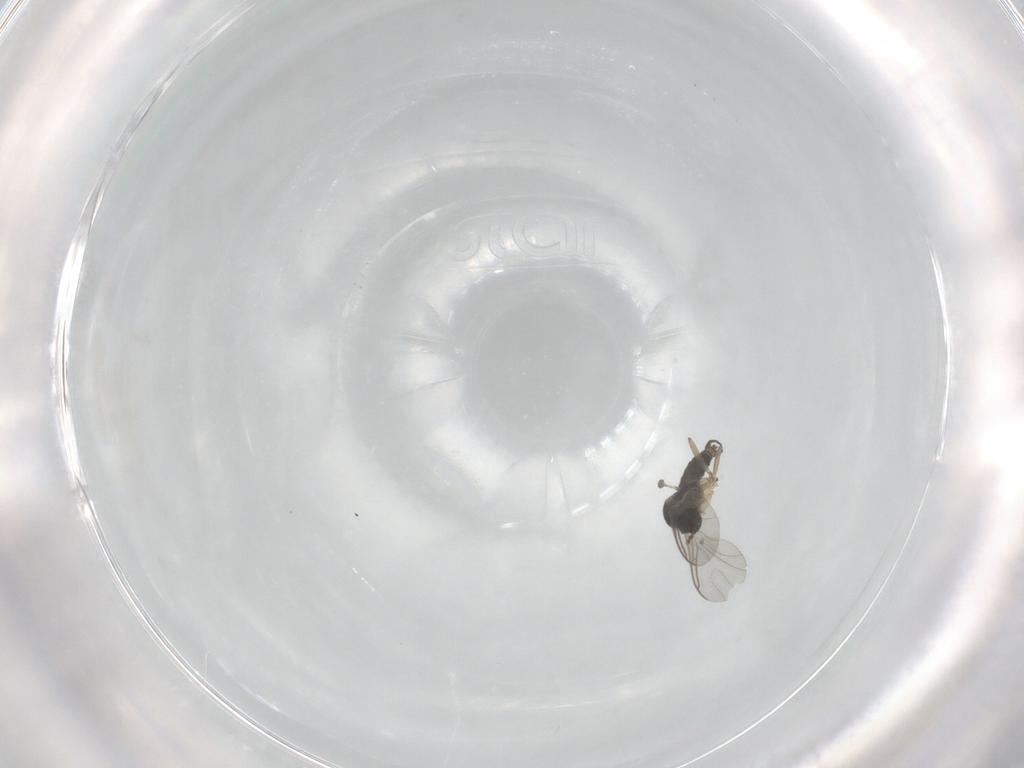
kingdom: Animalia
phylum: Arthropoda
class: Insecta
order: Diptera
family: Sciaridae
